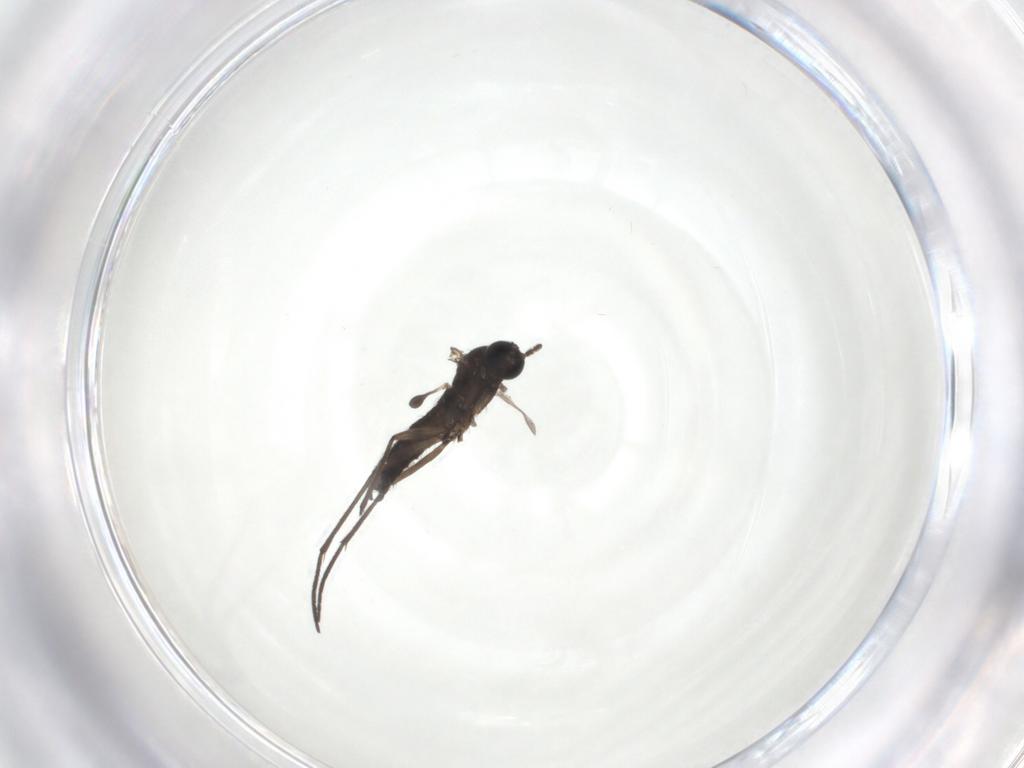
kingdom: Animalia
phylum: Arthropoda
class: Insecta
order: Diptera
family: Sciaridae
